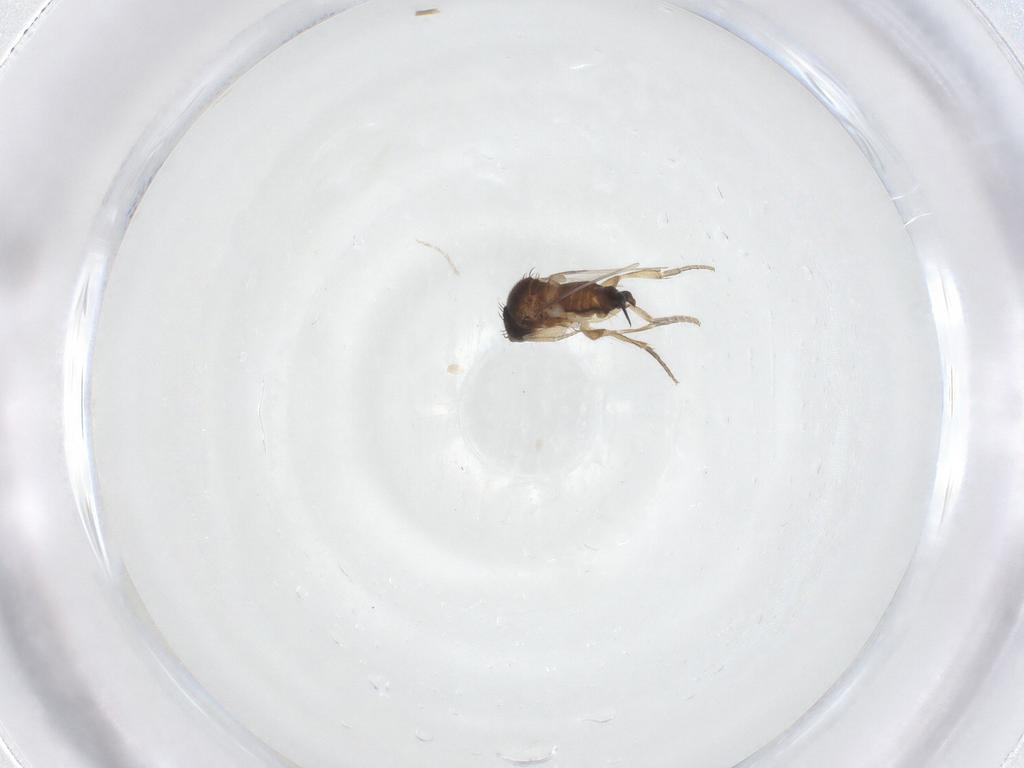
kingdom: Animalia
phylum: Arthropoda
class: Insecta
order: Diptera
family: Phoridae
